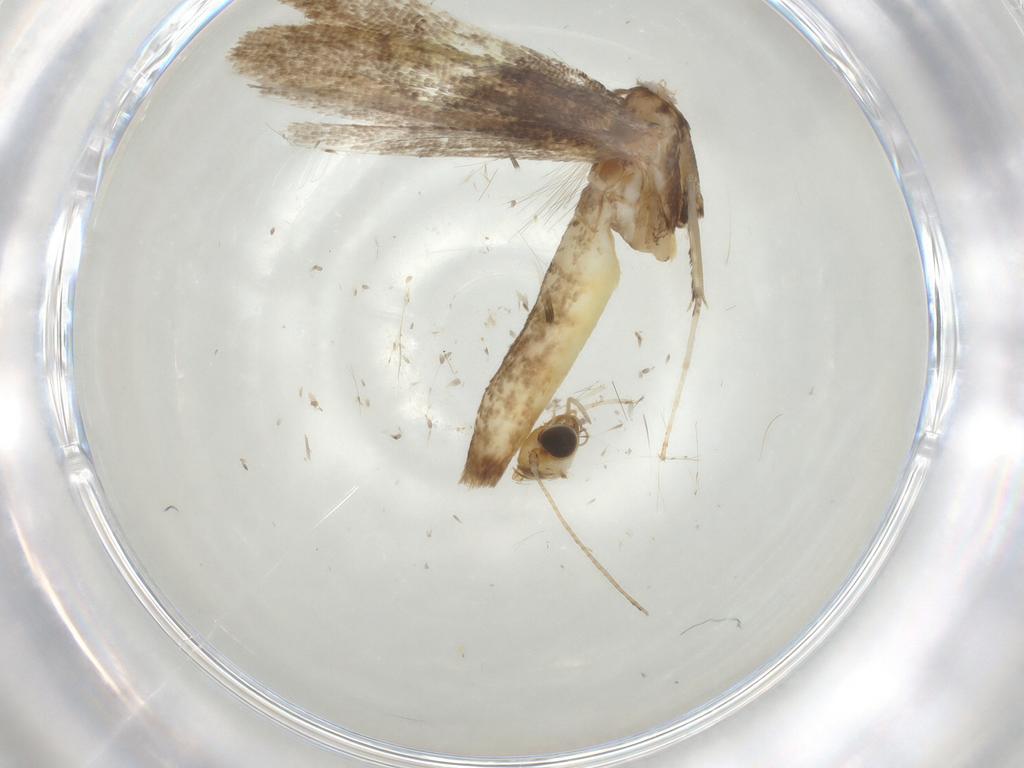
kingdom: Animalia
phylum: Arthropoda
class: Insecta
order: Lepidoptera
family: Gracillariidae
